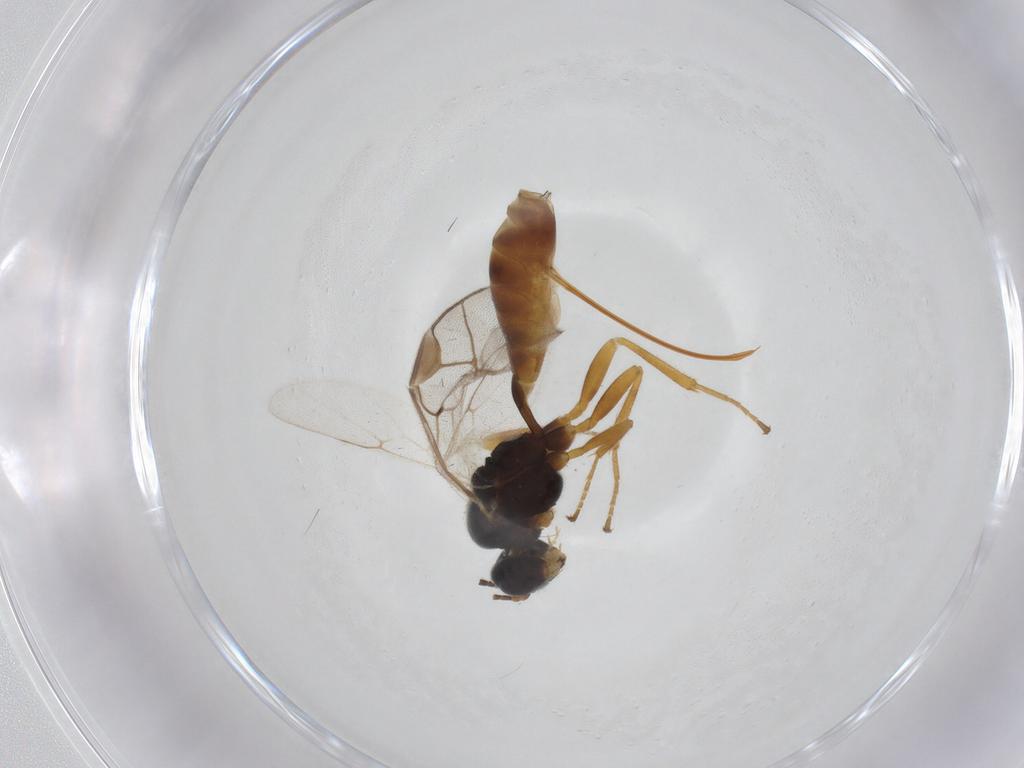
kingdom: Animalia
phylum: Arthropoda
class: Insecta
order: Hymenoptera
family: Ichneumonidae
